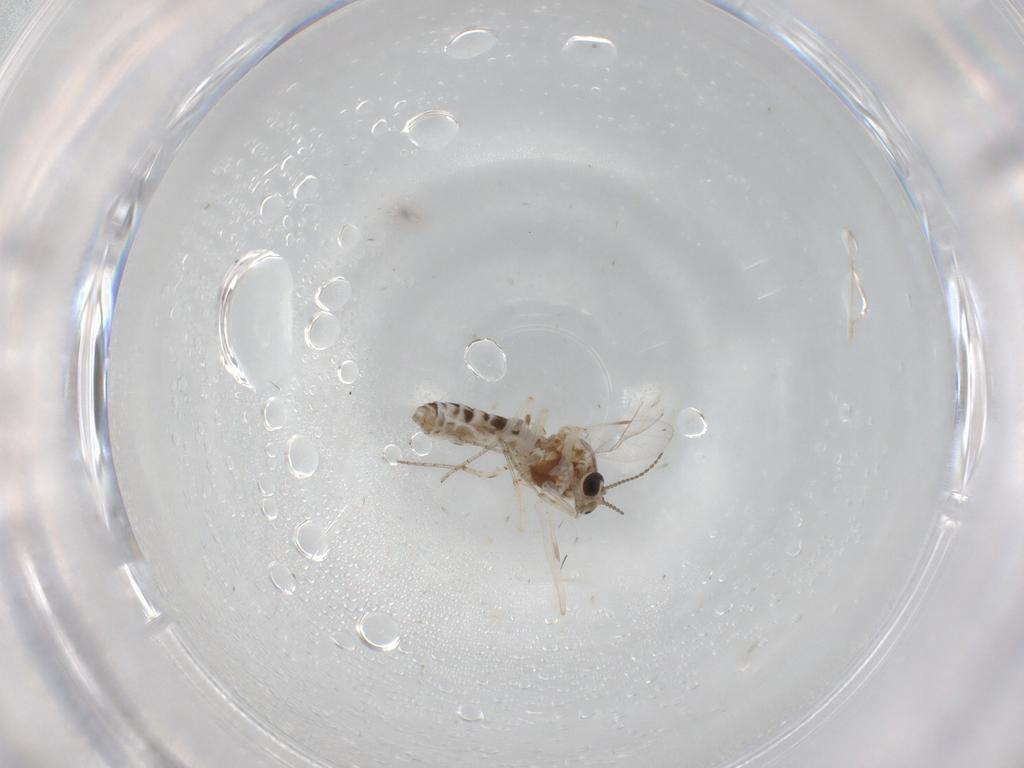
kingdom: Animalia
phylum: Arthropoda
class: Insecta
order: Diptera
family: Ceratopogonidae
